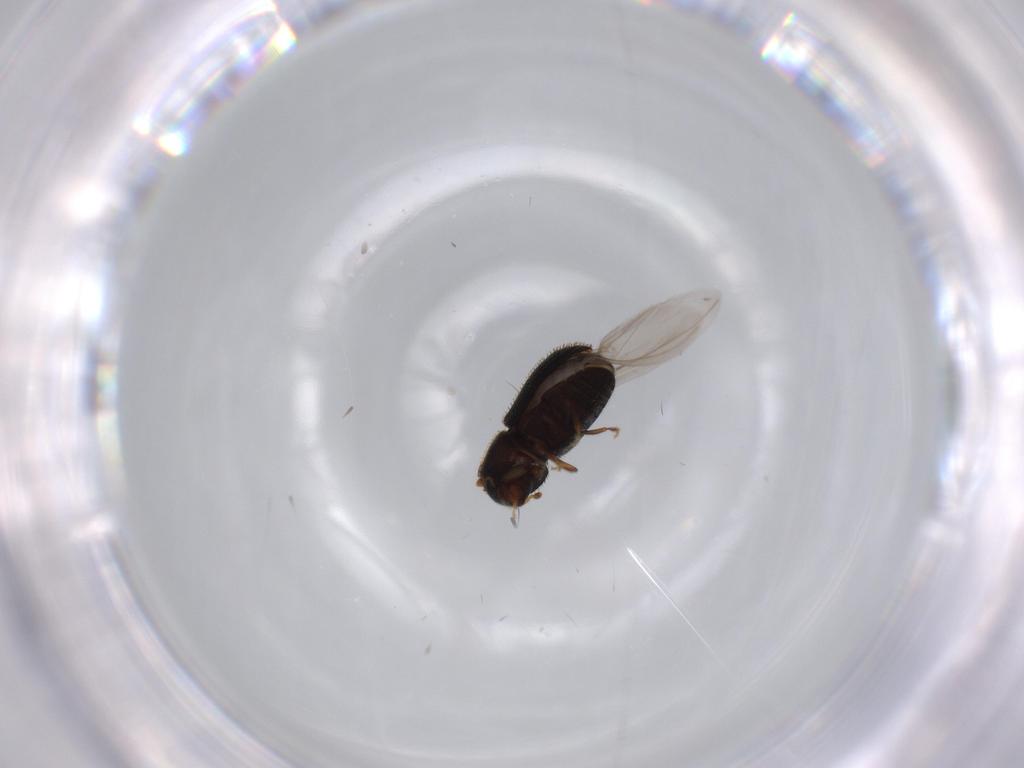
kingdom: Animalia
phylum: Arthropoda
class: Insecta
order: Coleoptera
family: Curculionidae
